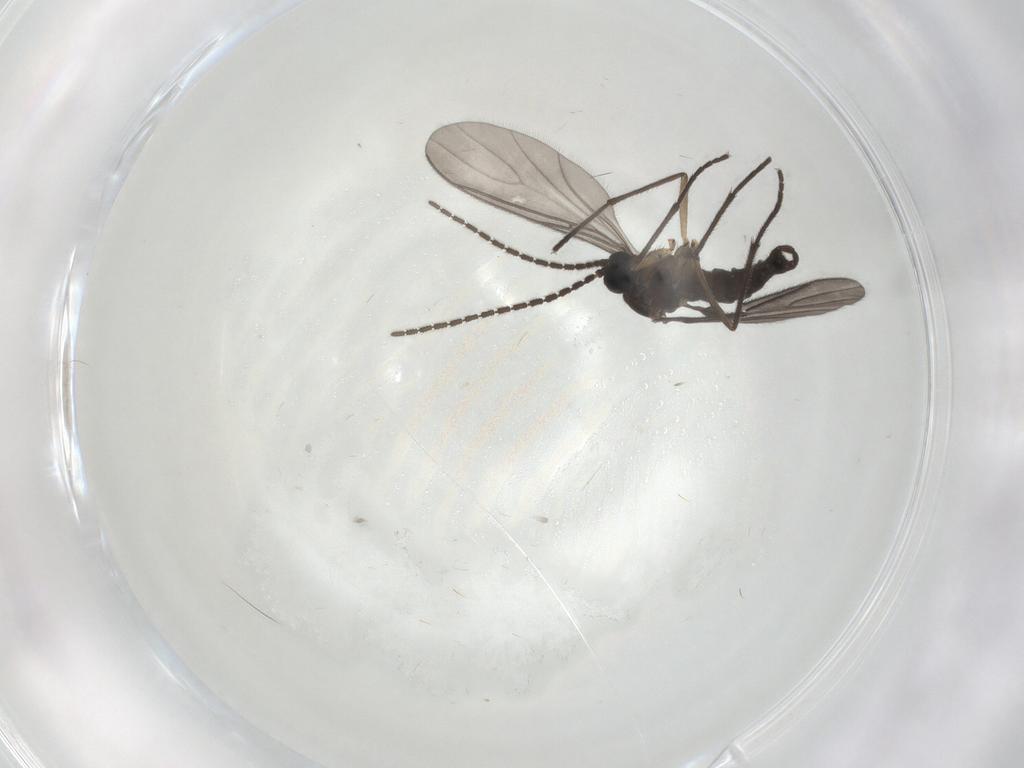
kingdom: Animalia
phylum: Arthropoda
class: Insecta
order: Diptera
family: Sciaridae
